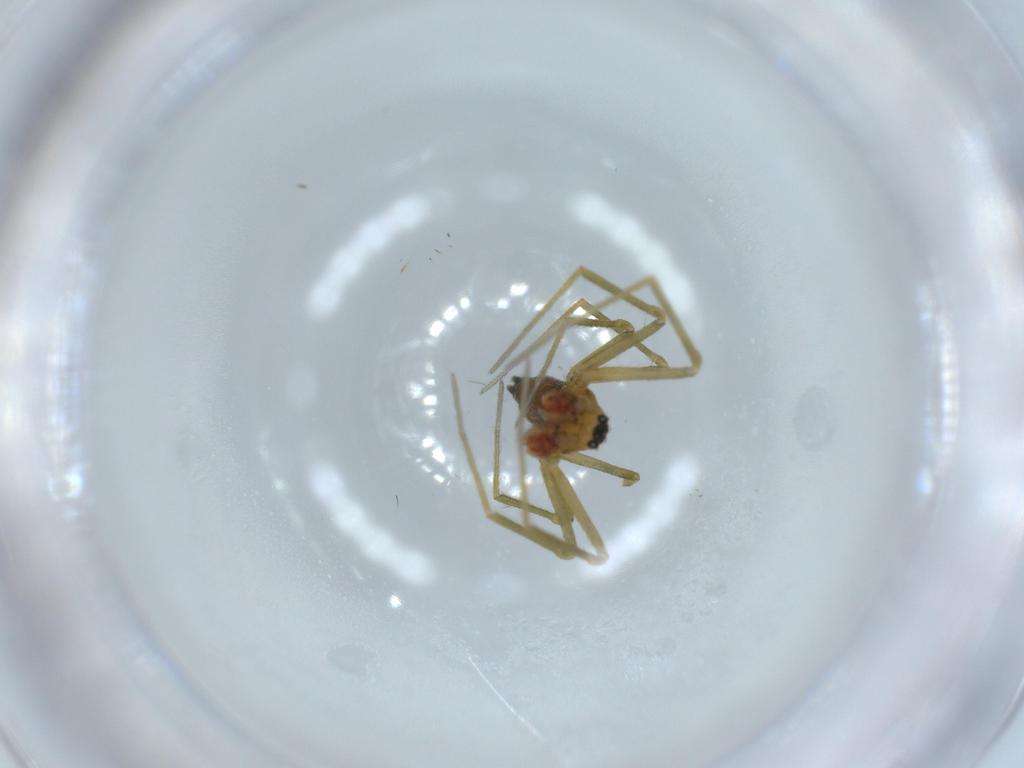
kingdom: Animalia
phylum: Arthropoda
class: Arachnida
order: Araneae
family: Linyphiidae
